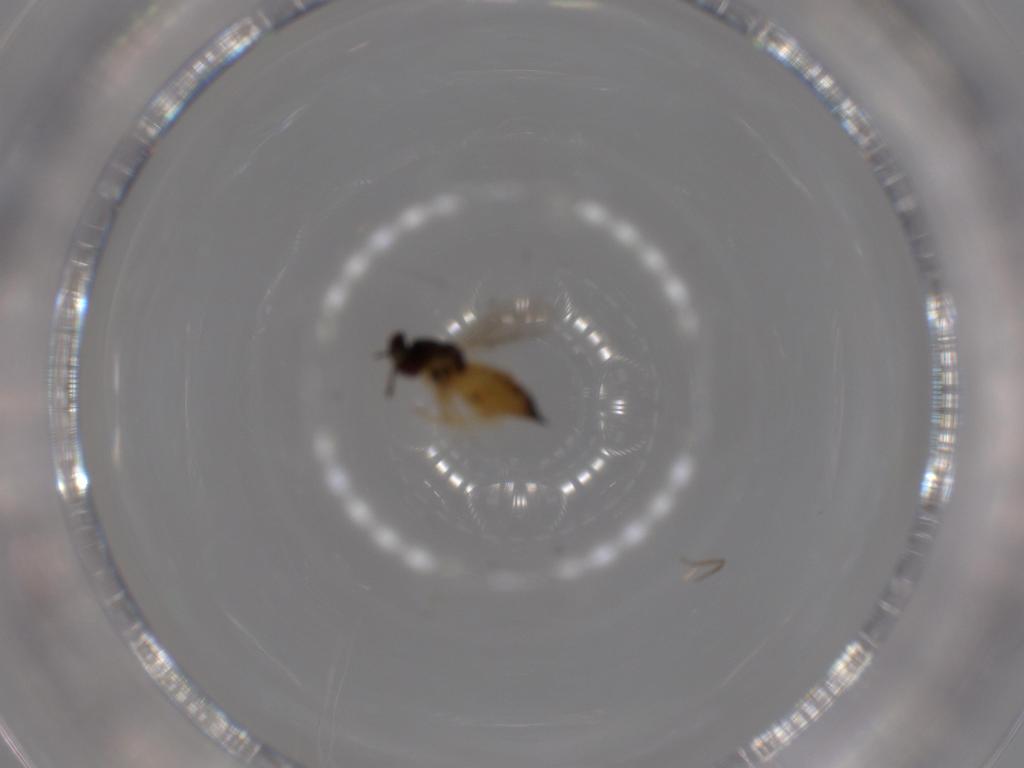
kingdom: Animalia
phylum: Arthropoda
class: Insecta
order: Hymenoptera
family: Eulophidae
